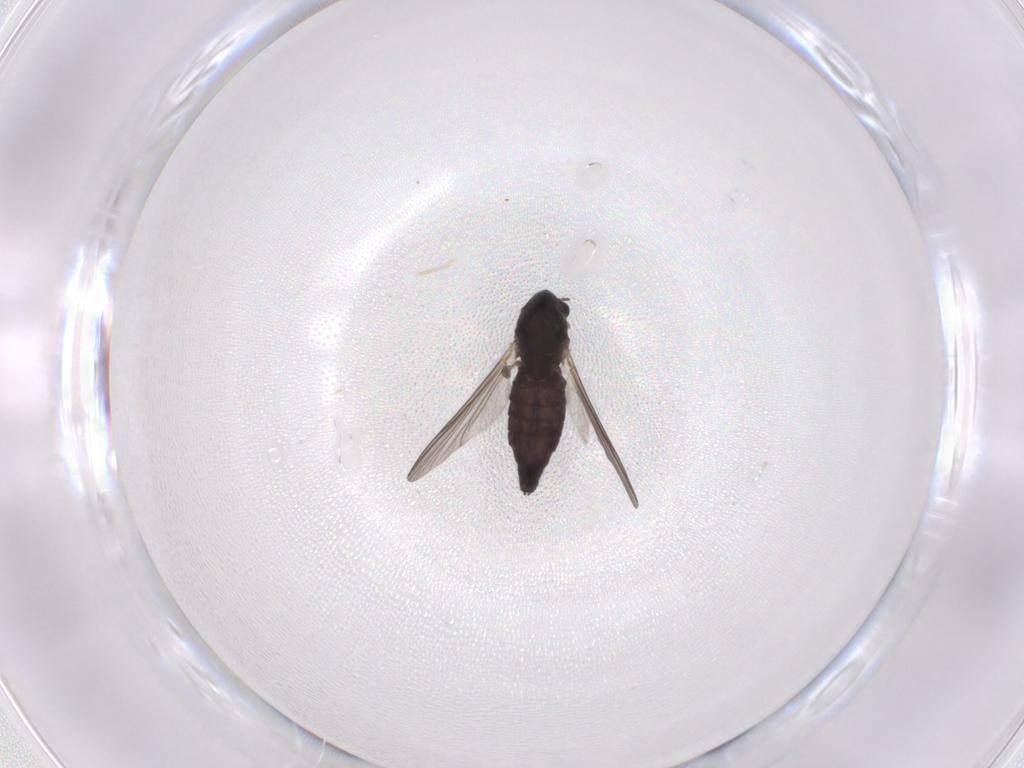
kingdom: Animalia
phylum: Arthropoda
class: Insecta
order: Diptera
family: Chironomidae
